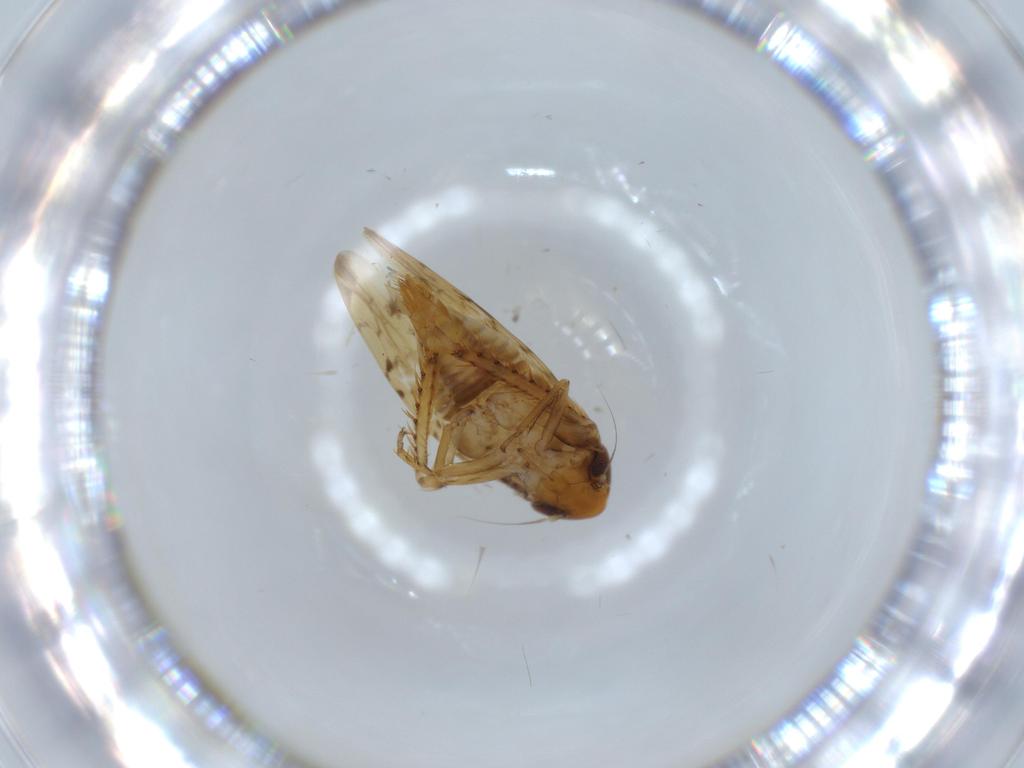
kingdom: Animalia
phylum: Arthropoda
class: Insecta
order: Hemiptera
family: Cicadellidae
